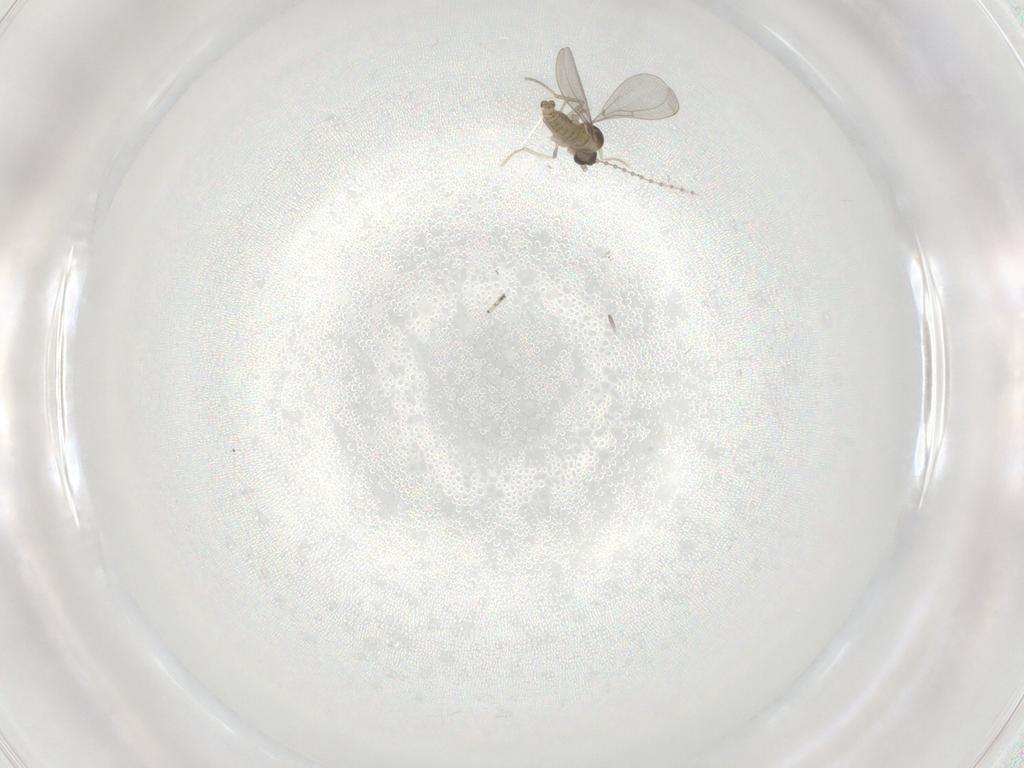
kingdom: Animalia
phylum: Arthropoda
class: Insecta
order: Diptera
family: Cecidomyiidae
